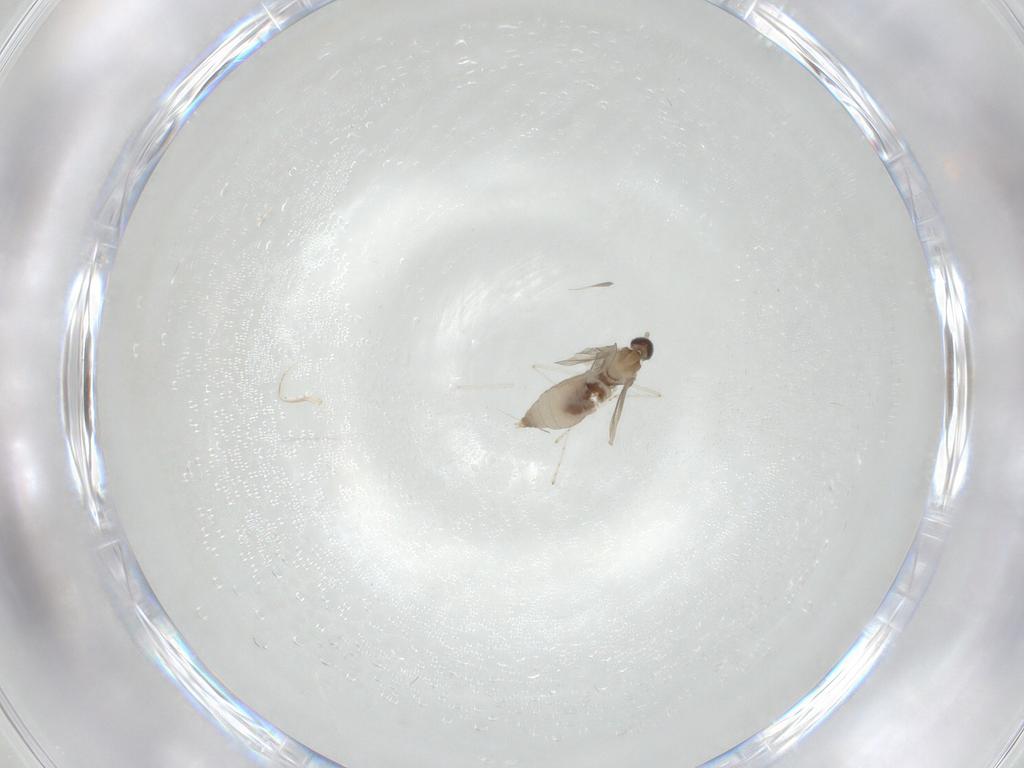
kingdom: Animalia
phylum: Arthropoda
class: Insecta
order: Diptera
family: Cecidomyiidae
